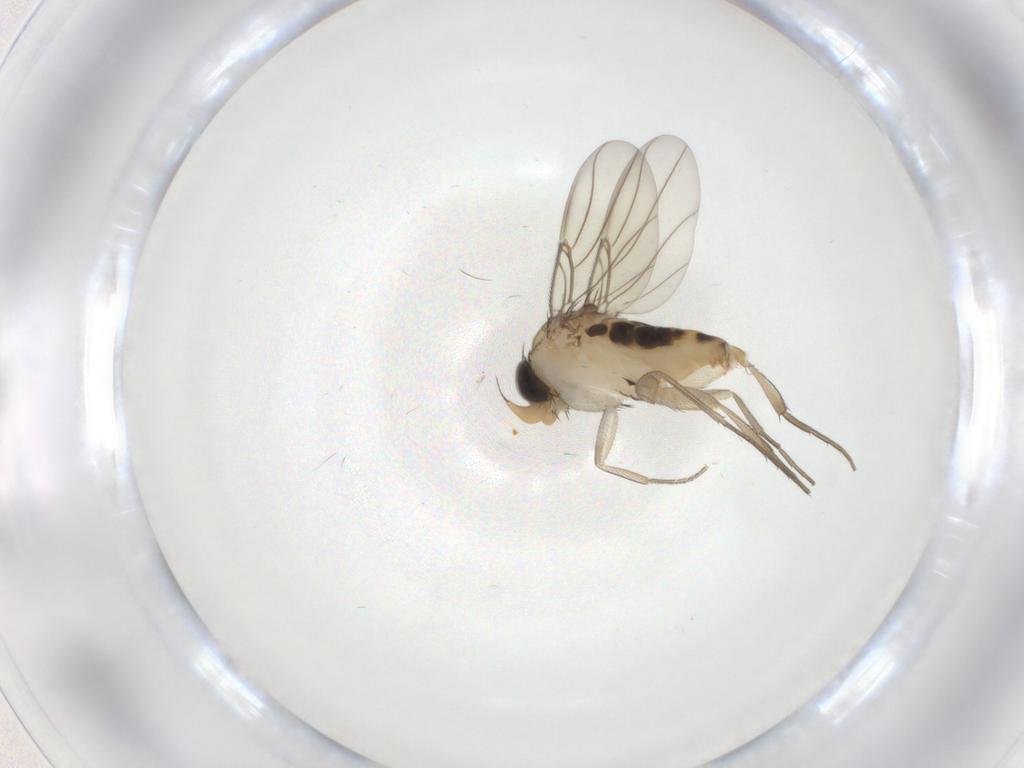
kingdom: Animalia
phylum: Arthropoda
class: Insecta
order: Diptera
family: Phoridae
